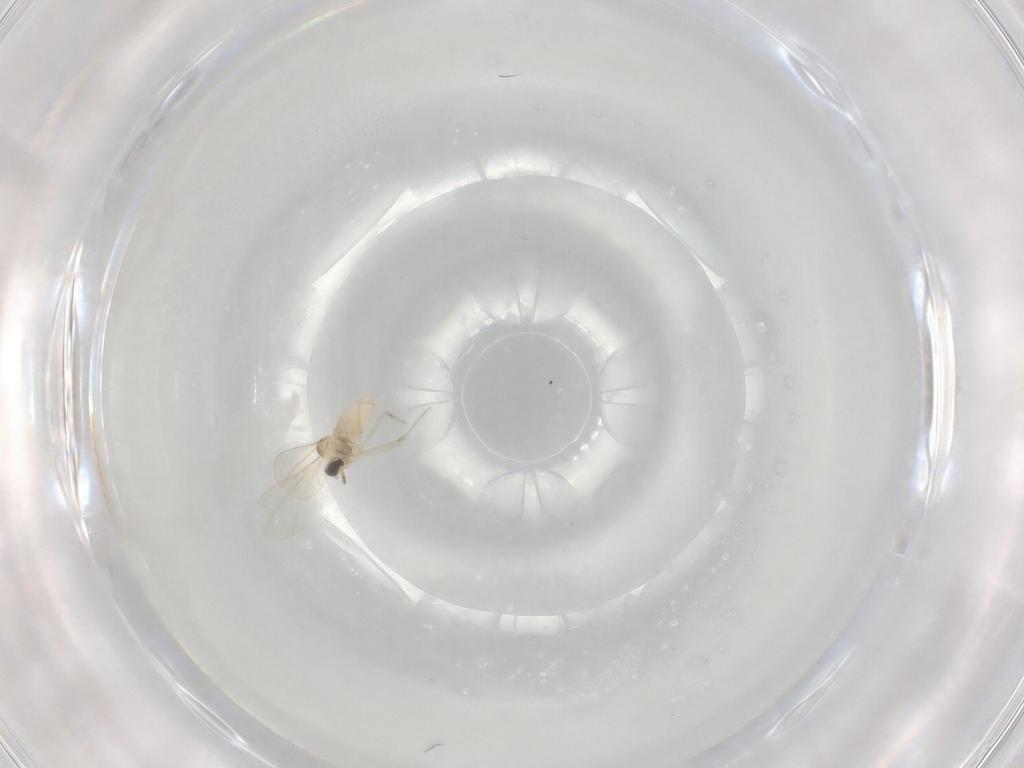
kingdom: Animalia
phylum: Arthropoda
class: Insecta
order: Diptera
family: Cecidomyiidae
